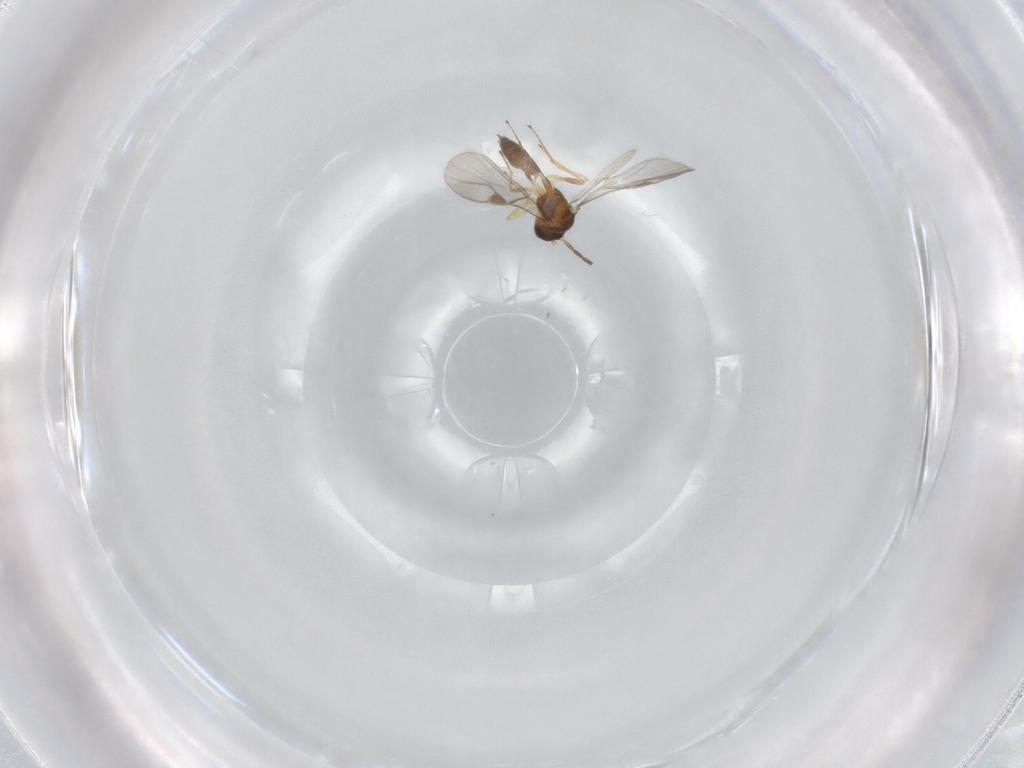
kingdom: Animalia
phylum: Arthropoda
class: Insecta
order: Hymenoptera
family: Braconidae
